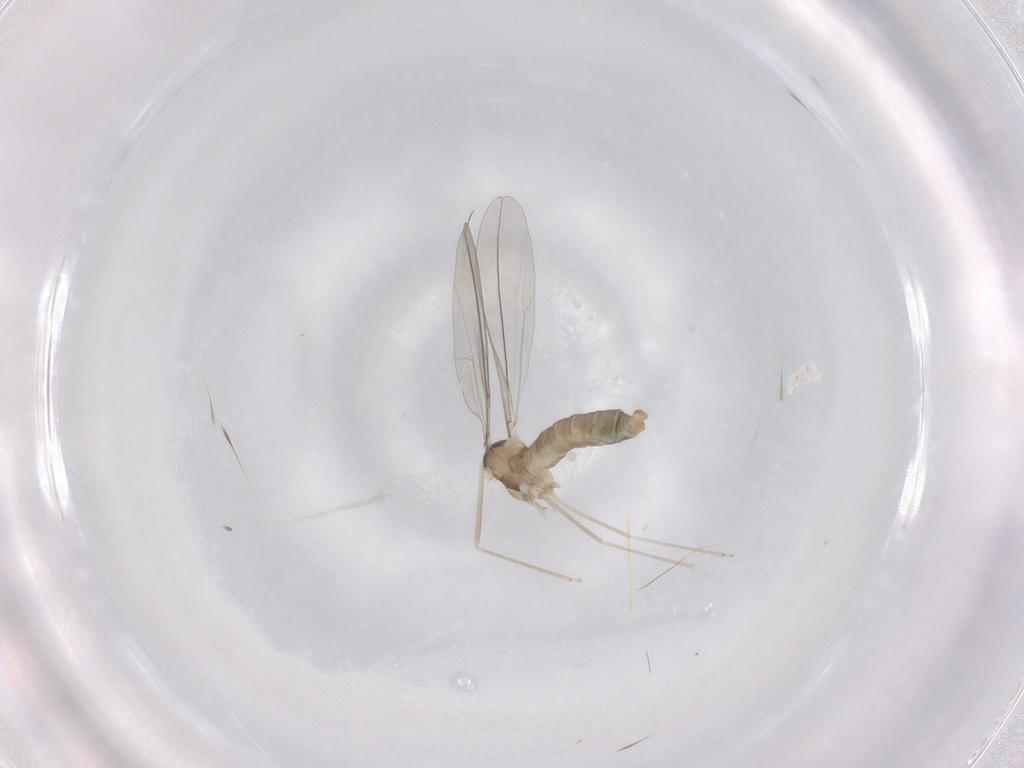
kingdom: Animalia
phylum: Arthropoda
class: Insecta
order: Diptera
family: Cecidomyiidae
